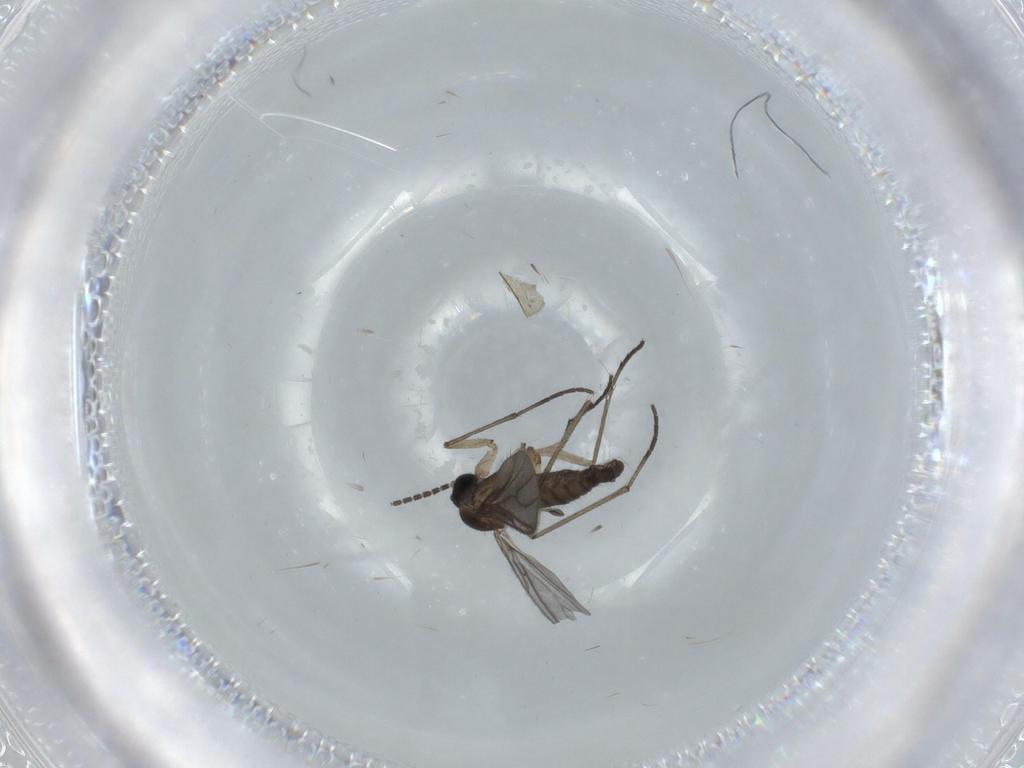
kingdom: Animalia
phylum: Arthropoda
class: Insecta
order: Diptera
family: Sciaridae
